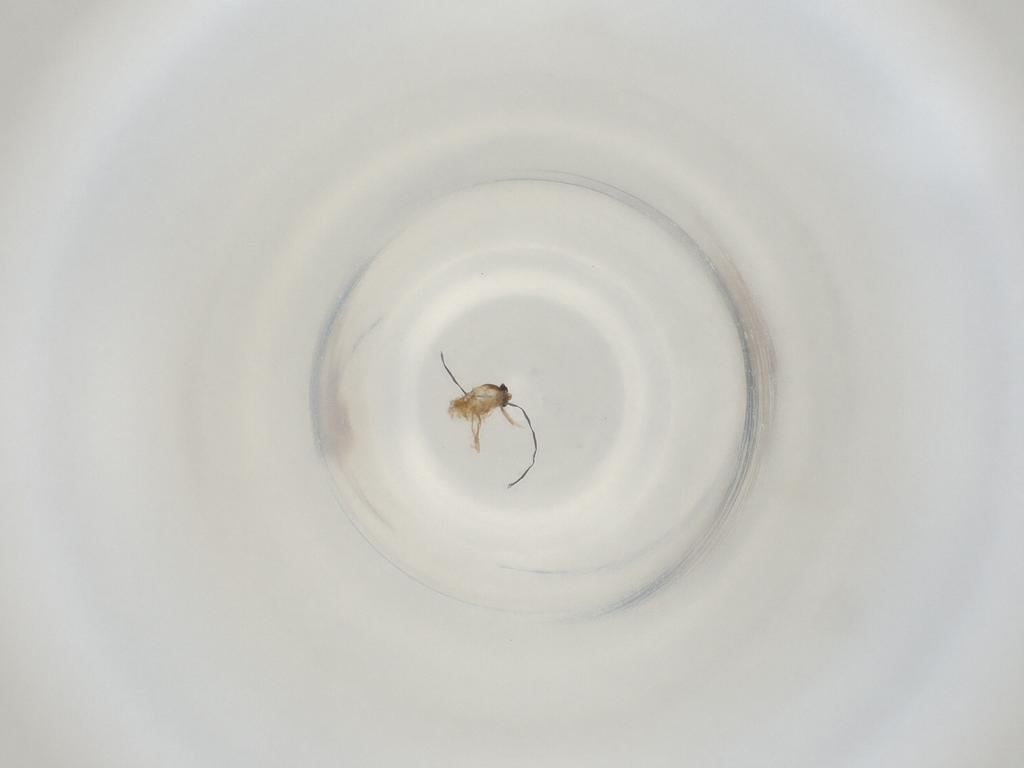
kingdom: Animalia
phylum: Arthropoda
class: Insecta
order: Diptera
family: Cecidomyiidae
